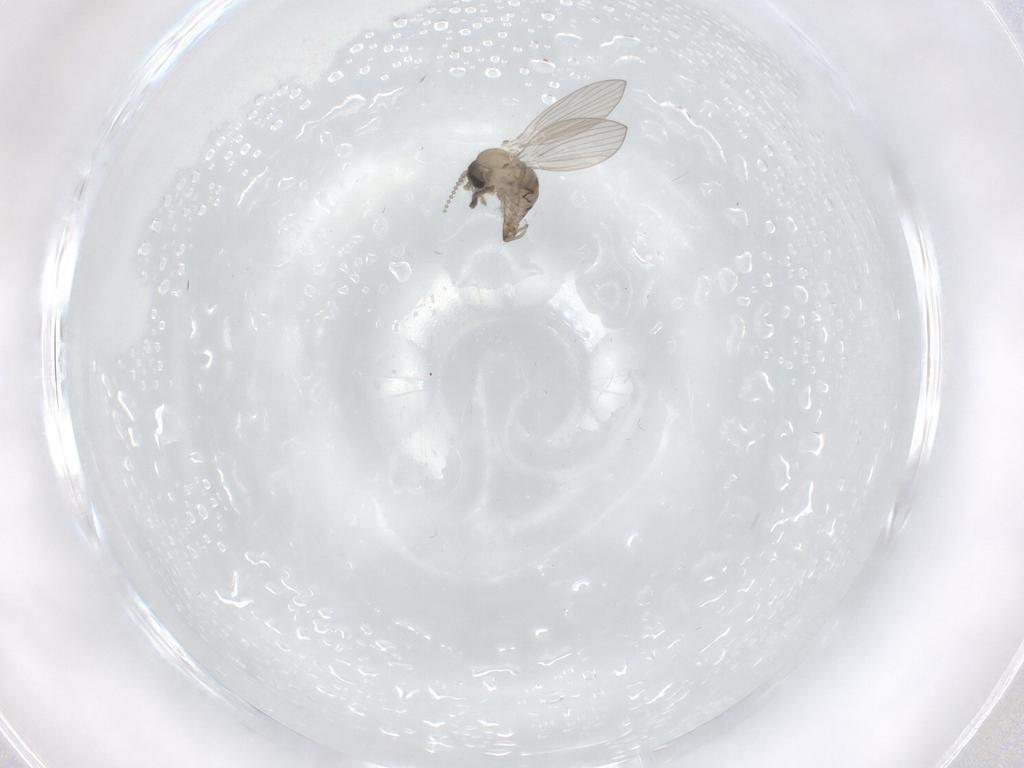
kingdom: Animalia
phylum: Arthropoda
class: Insecta
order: Diptera
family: Psychodidae
